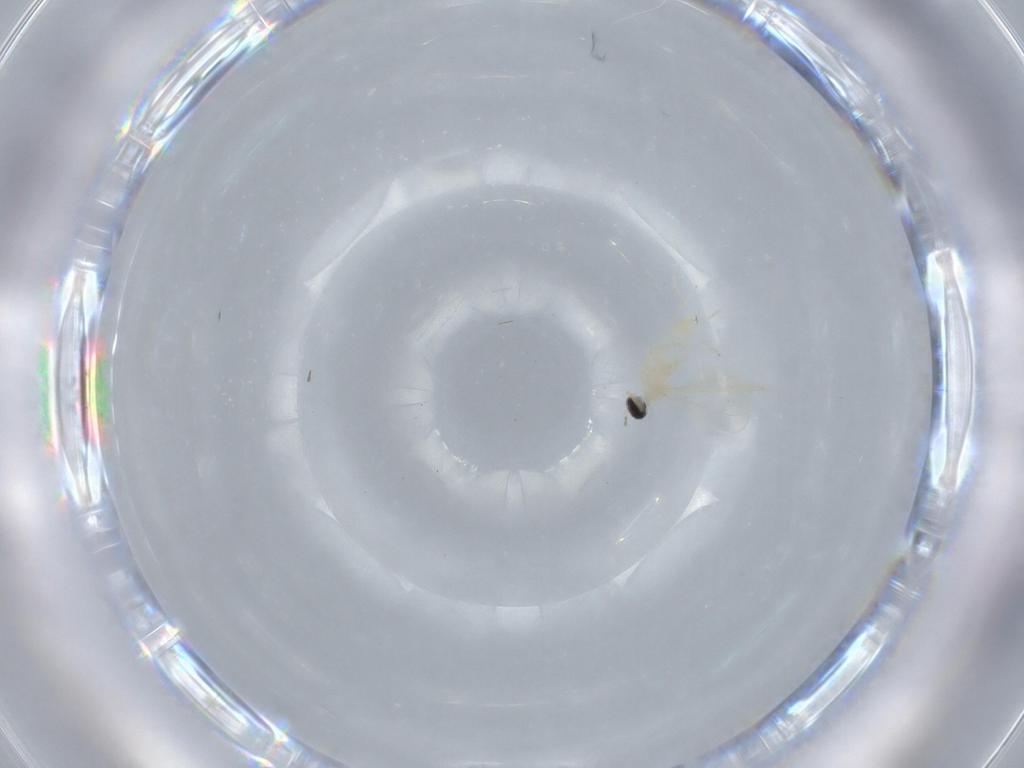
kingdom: Animalia
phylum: Arthropoda
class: Insecta
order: Diptera
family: Cecidomyiidae
